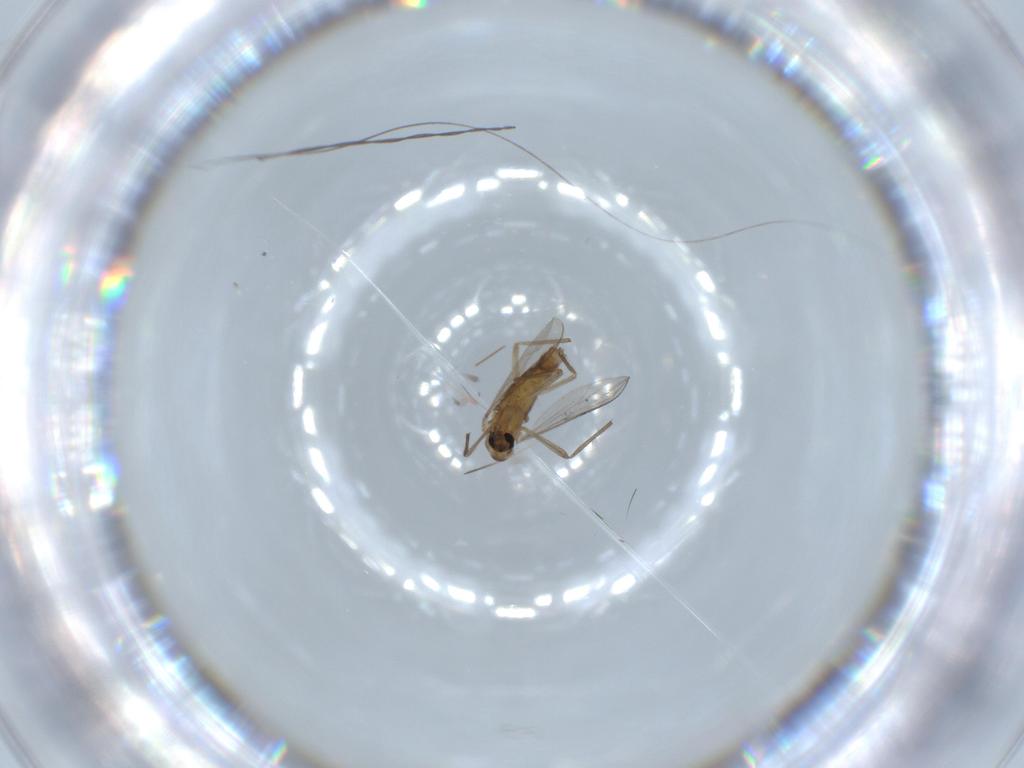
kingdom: Animalia
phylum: Arthropoda
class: Insecta
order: Diptera
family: Chironomidae
